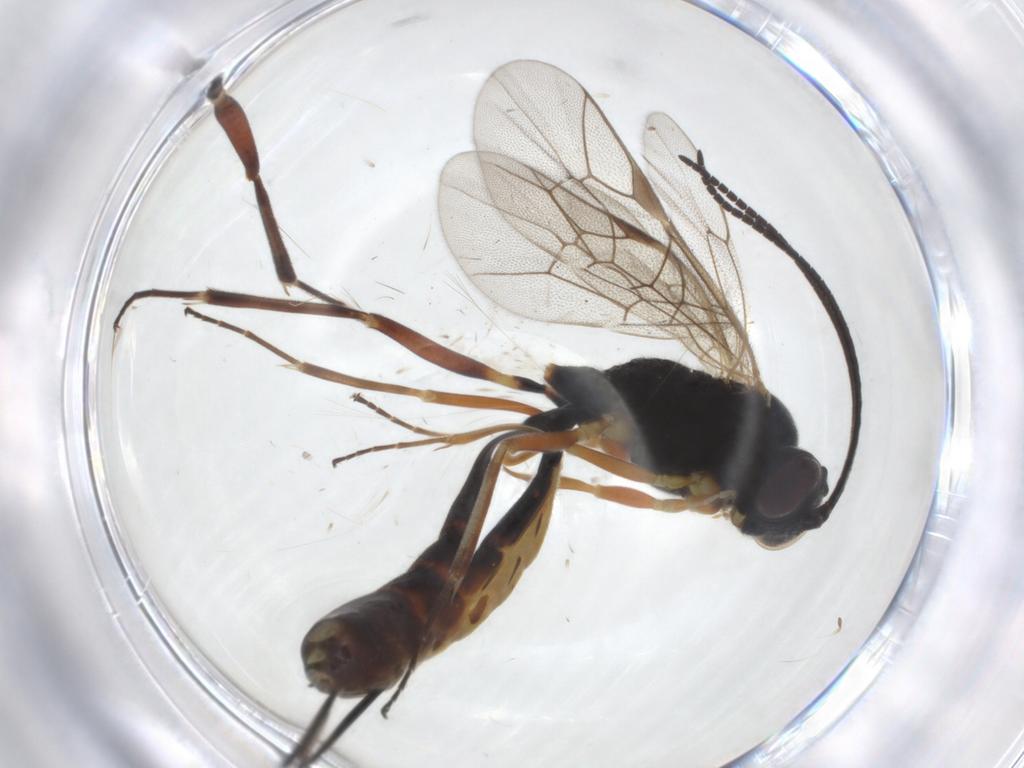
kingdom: Animalia
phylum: Arthropoda
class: Insecta
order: Hymenoptera
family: Ichneumonidae
